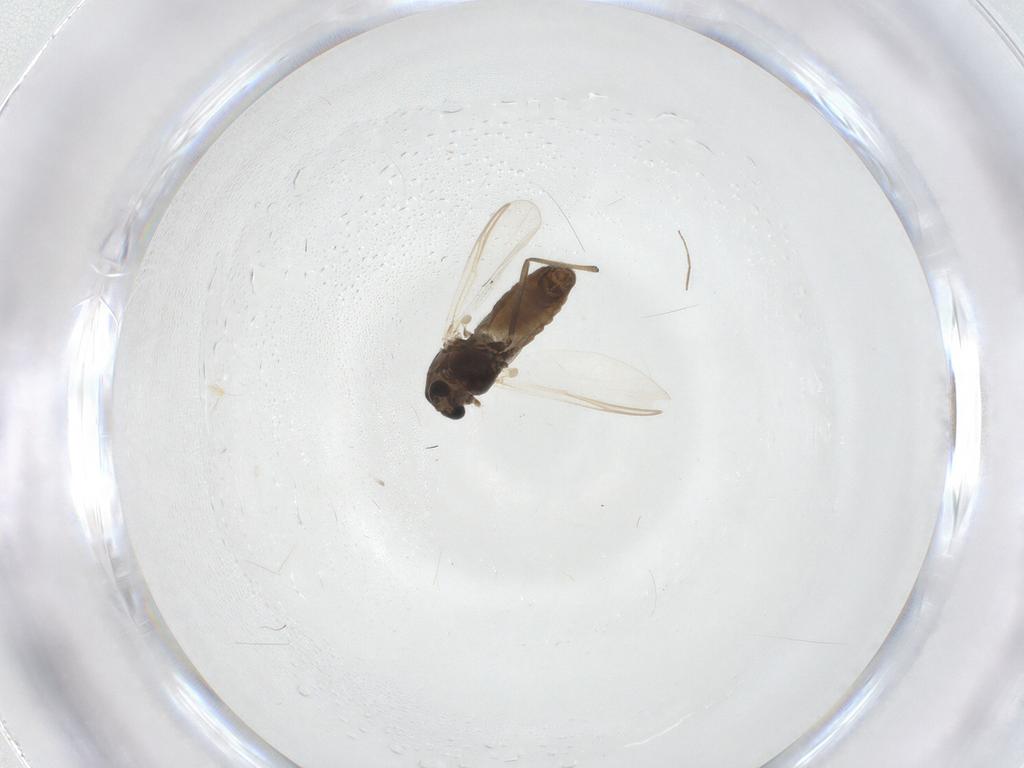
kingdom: Animalia
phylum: Arthropoda
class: Insecta
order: Diptera
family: Chironomidae
